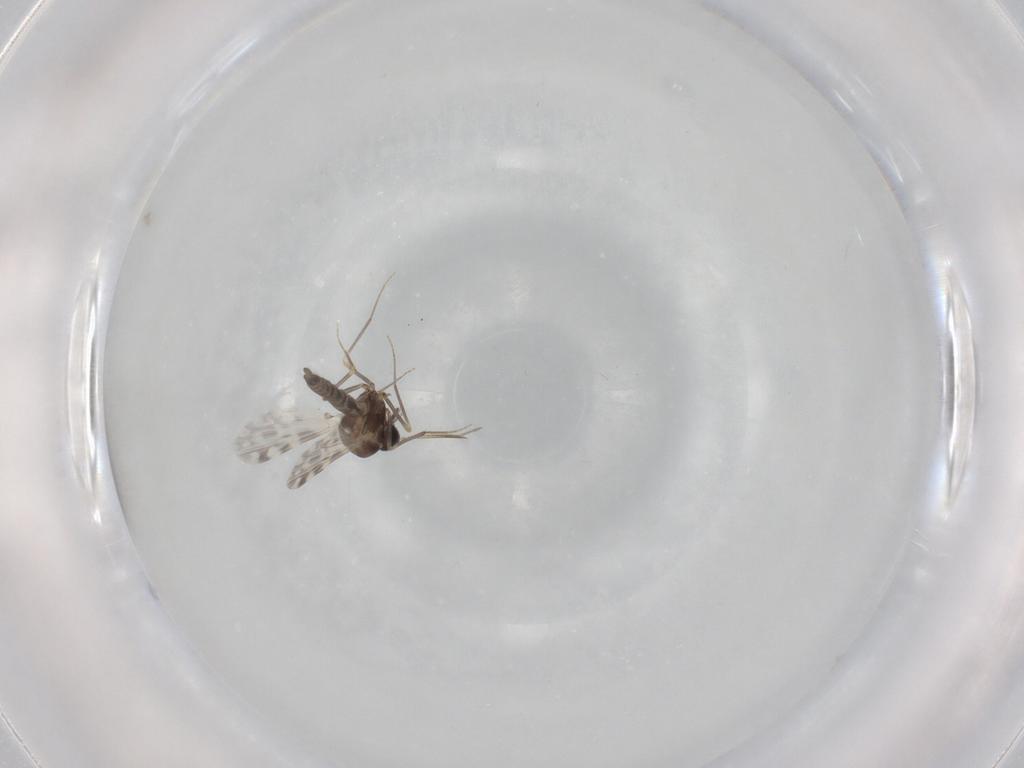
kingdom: Animalia
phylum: Arthropoda
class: Insecta
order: Diptera
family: Ceratopogonidae
